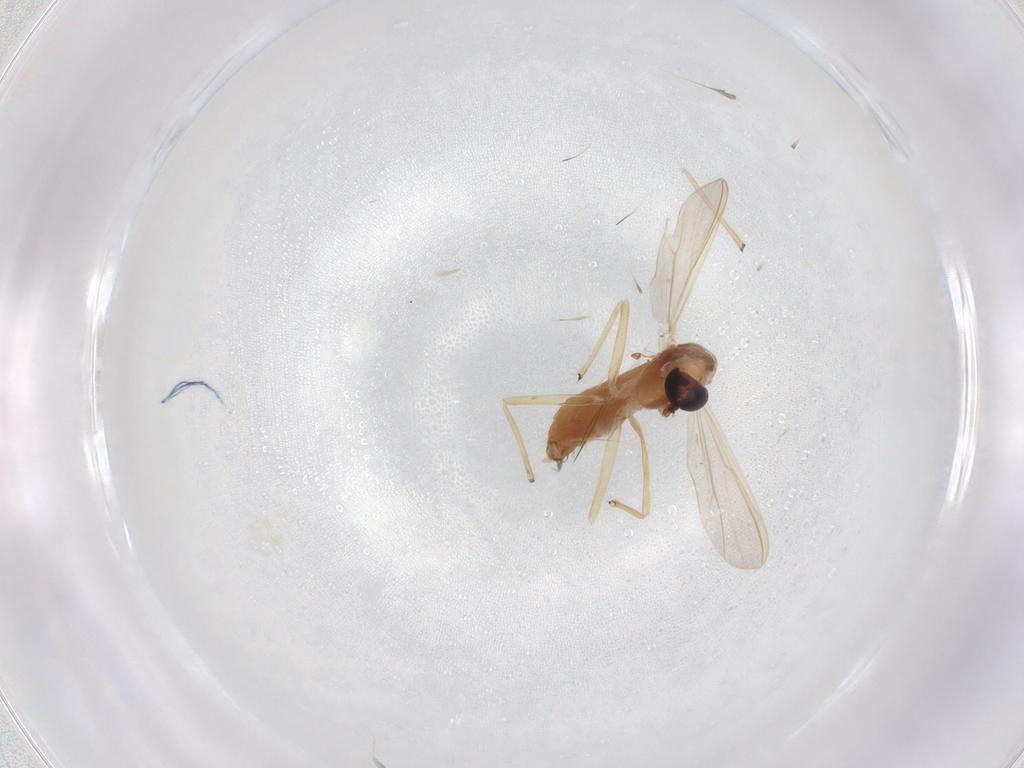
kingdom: Animalia
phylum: Arthropoda
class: Insecta
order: Diptera
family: Chironomidae
